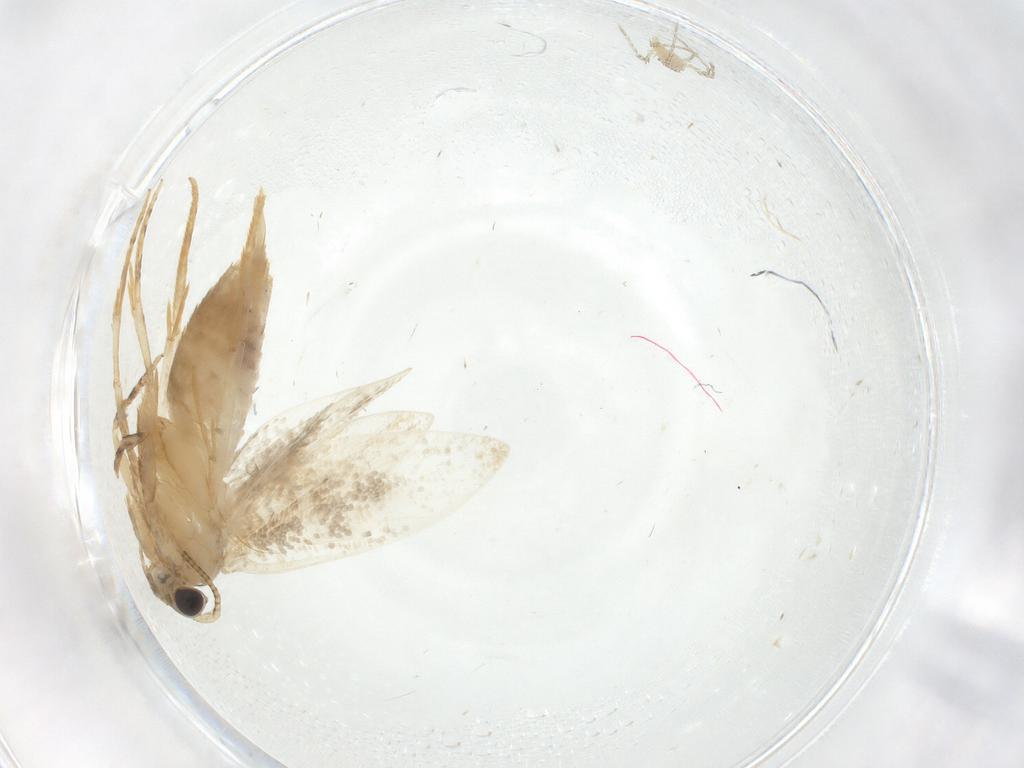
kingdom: Animalia
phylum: Arthropoda
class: Insecta
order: Lepidoptera
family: Tineidae
